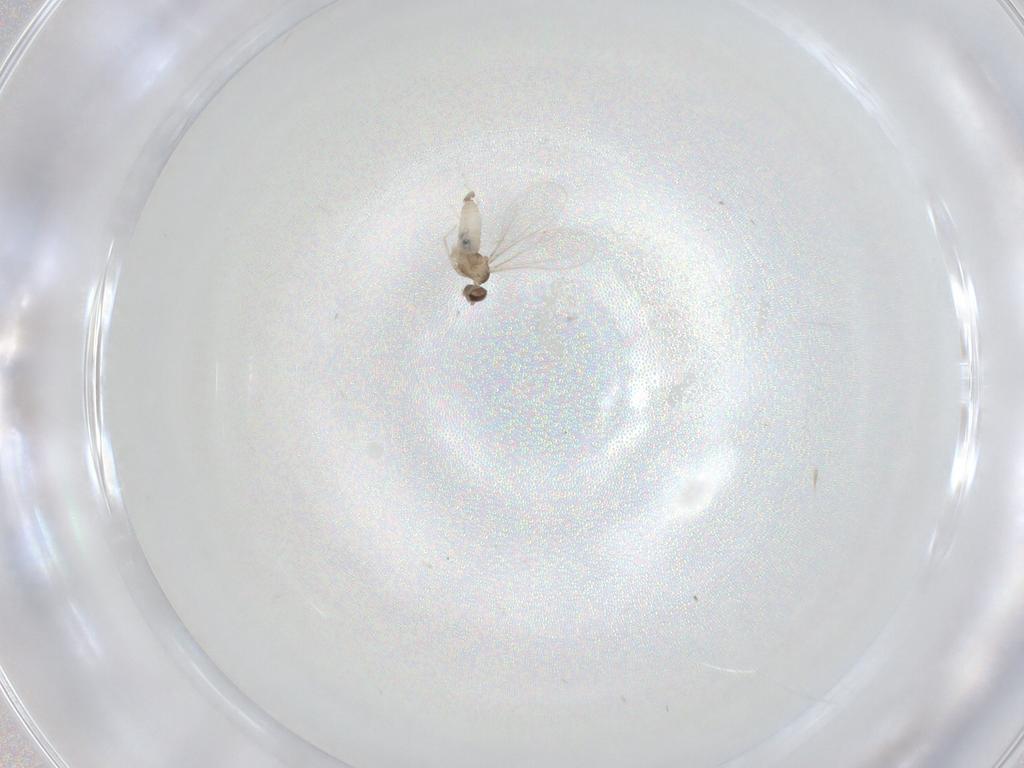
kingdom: Animalia
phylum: Arthropoda
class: Insecta
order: Diptera
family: Cecidomyiidae
